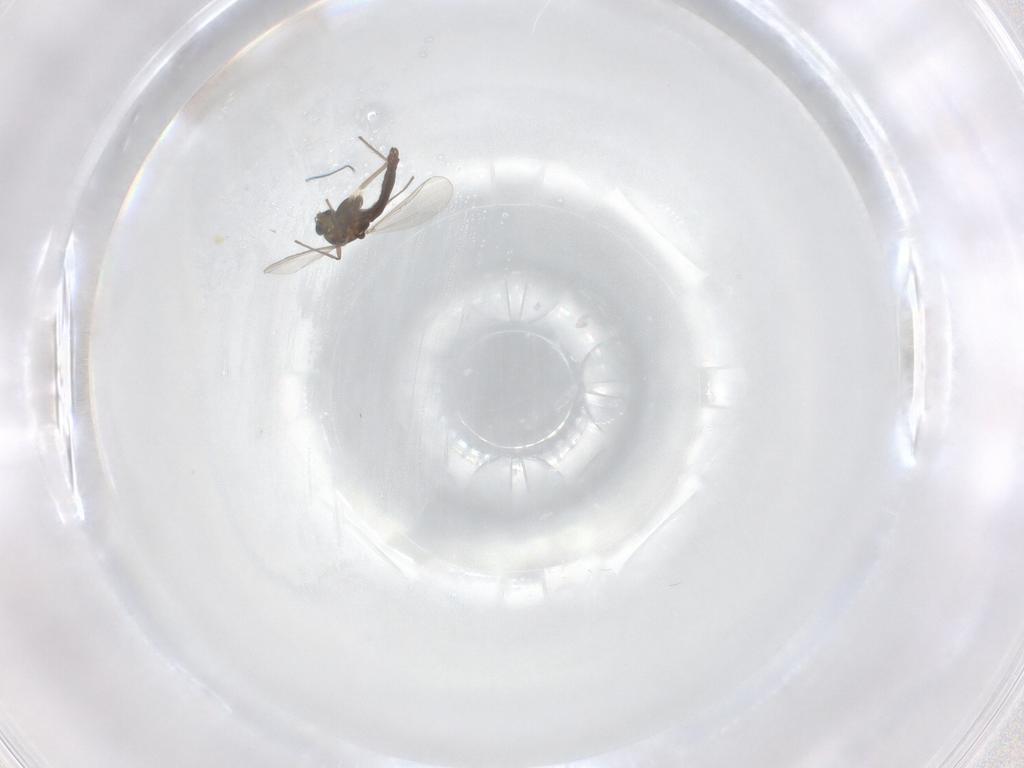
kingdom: Animalia
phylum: Arthropoda
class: Insecta
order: Diptera
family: Chironomidae
